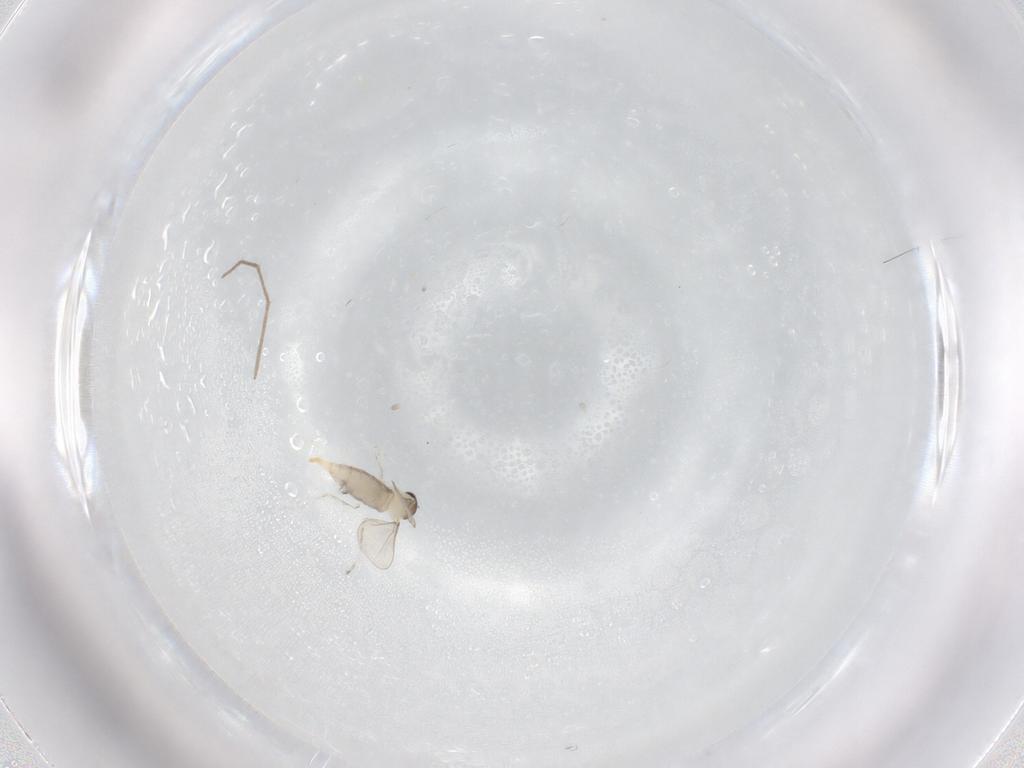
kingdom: Animalia
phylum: Arthropoda
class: Insecta
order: Diptera
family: Chironomidae
